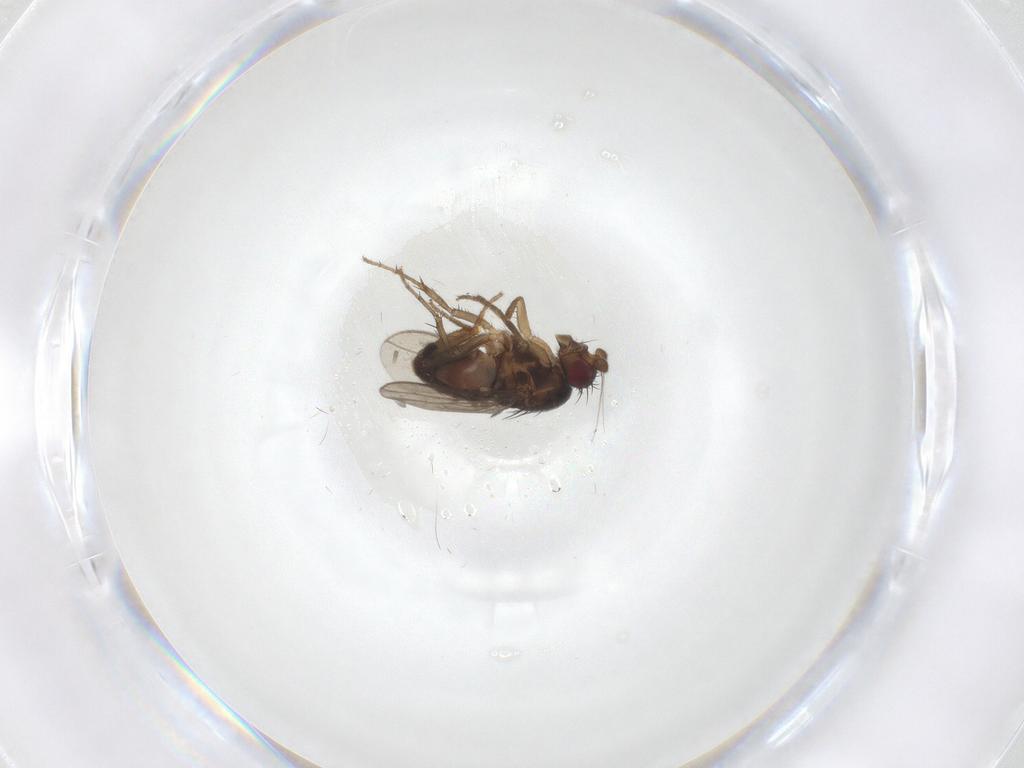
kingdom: Animalia
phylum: Arthropoda
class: Insecta
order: Diptera
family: Sphaeroceridae
